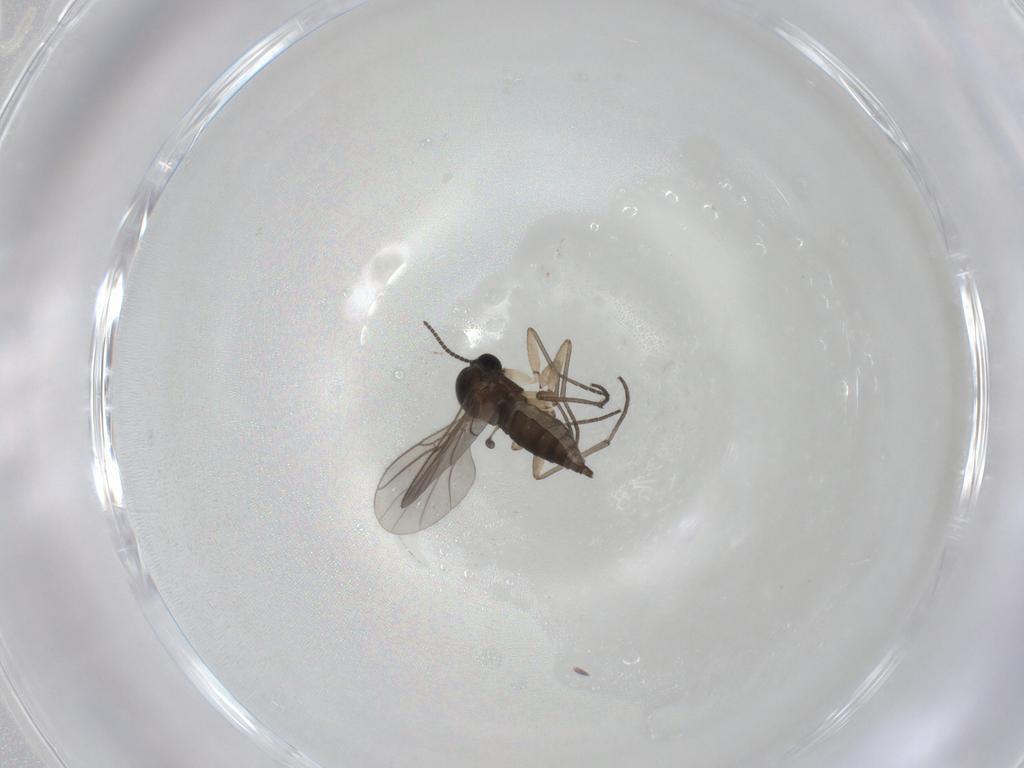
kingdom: Animalia
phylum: Arthropoda
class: Insecta
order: Diptera
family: Sciaridae
